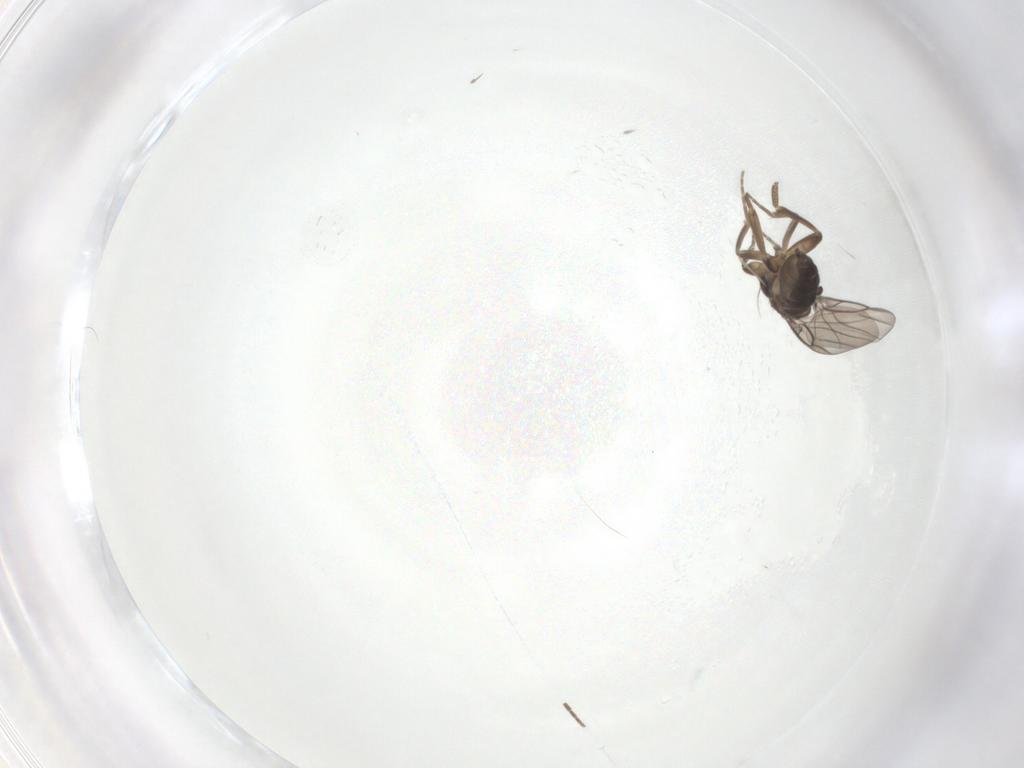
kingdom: Animalia
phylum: Arthropoda
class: Insecta
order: Diptera
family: Phoridae
